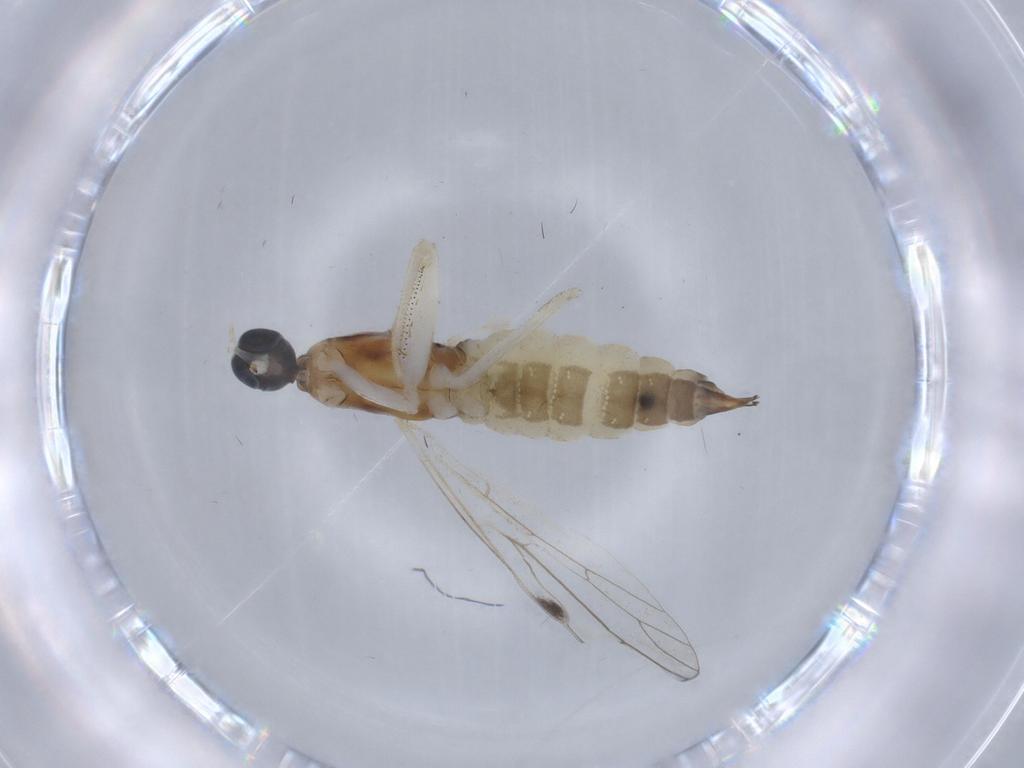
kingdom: Animalia
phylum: Arthropoda
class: Insecta
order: Diptera
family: Empididae
